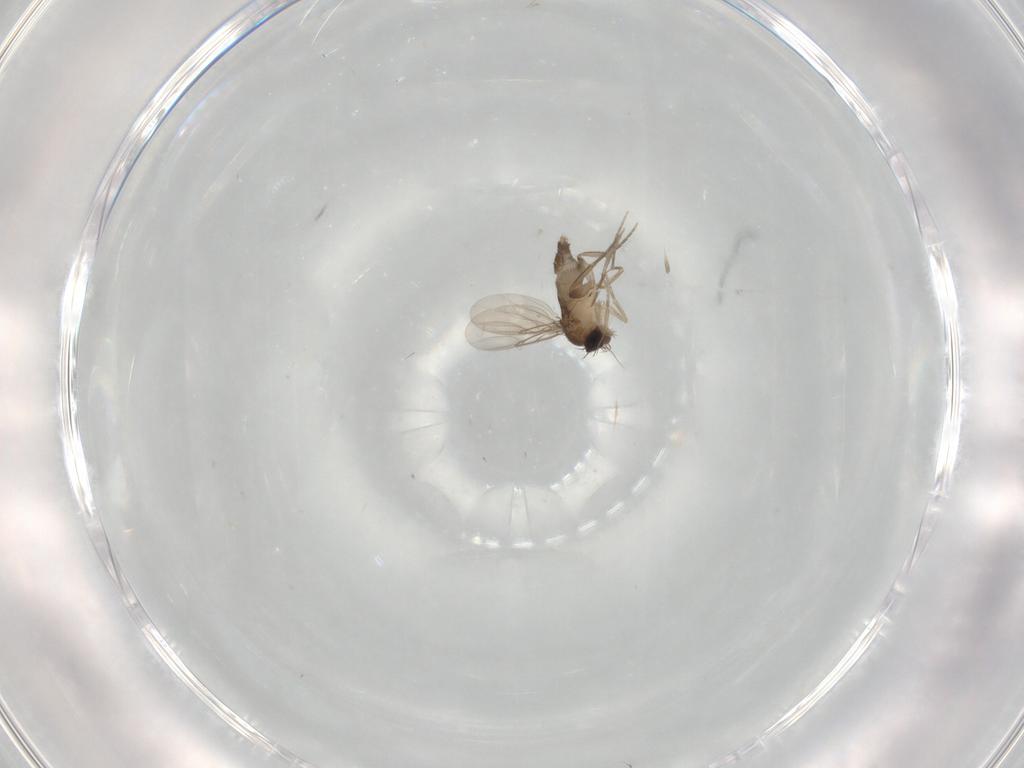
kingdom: Animalia
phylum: Arthropoda
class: Insecta
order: Diptera
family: Phoridae
